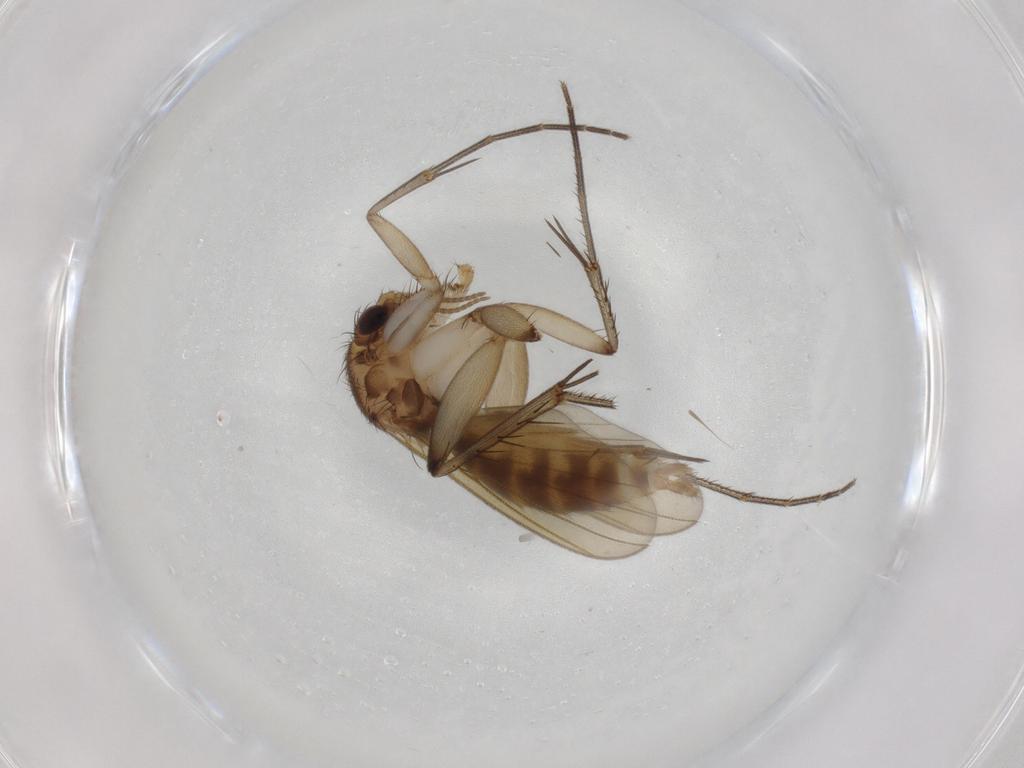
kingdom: Animalia
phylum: Arthropoda
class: Insecta
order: Diptera
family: Mycetophilidae
